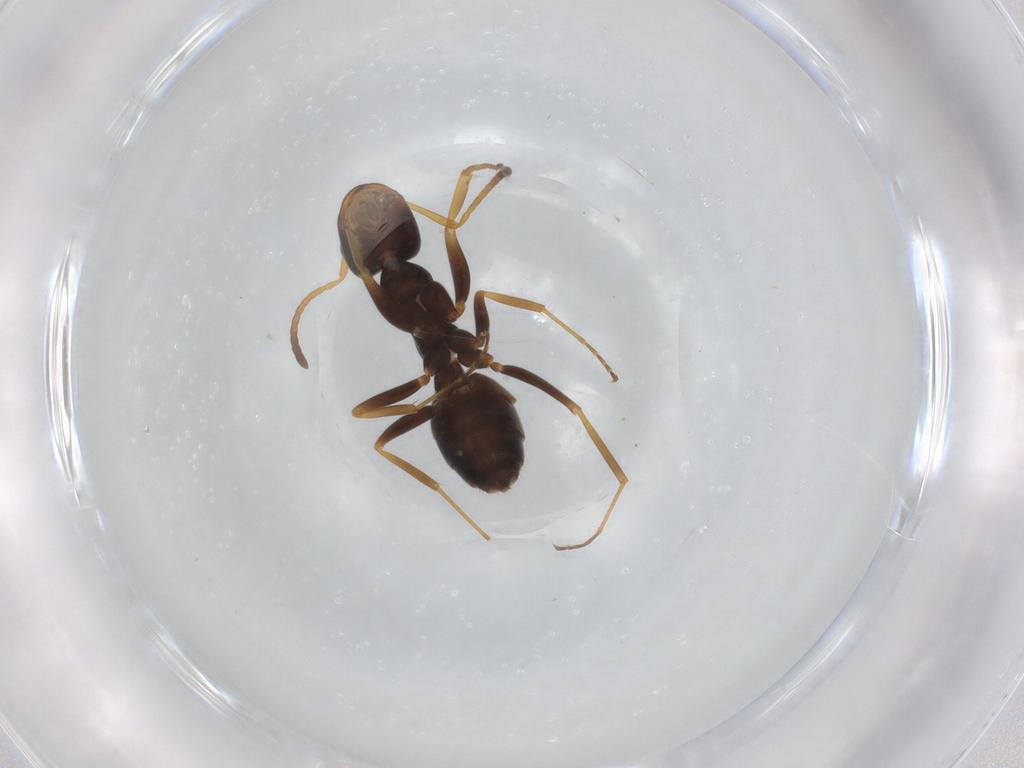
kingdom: Animalia
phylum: Arthropoda
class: Insecta
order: Hymenoptera
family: Formicidae
